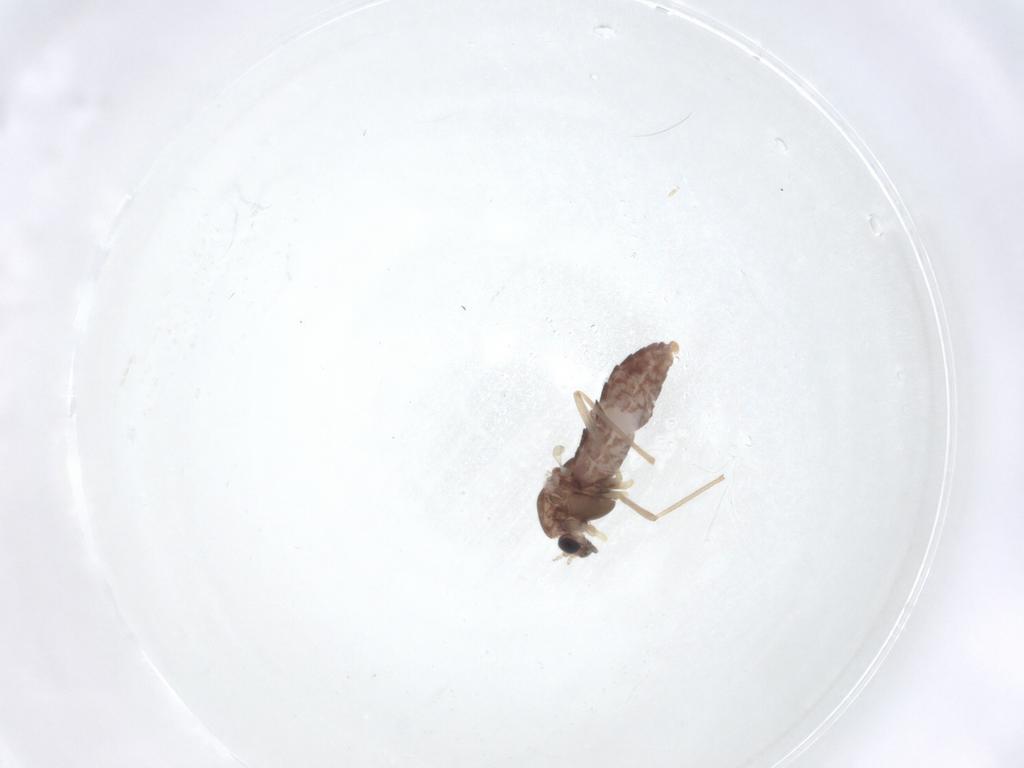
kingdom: Animalia
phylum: Arthropoda
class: Insecta
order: Diptera
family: Chironomidae
